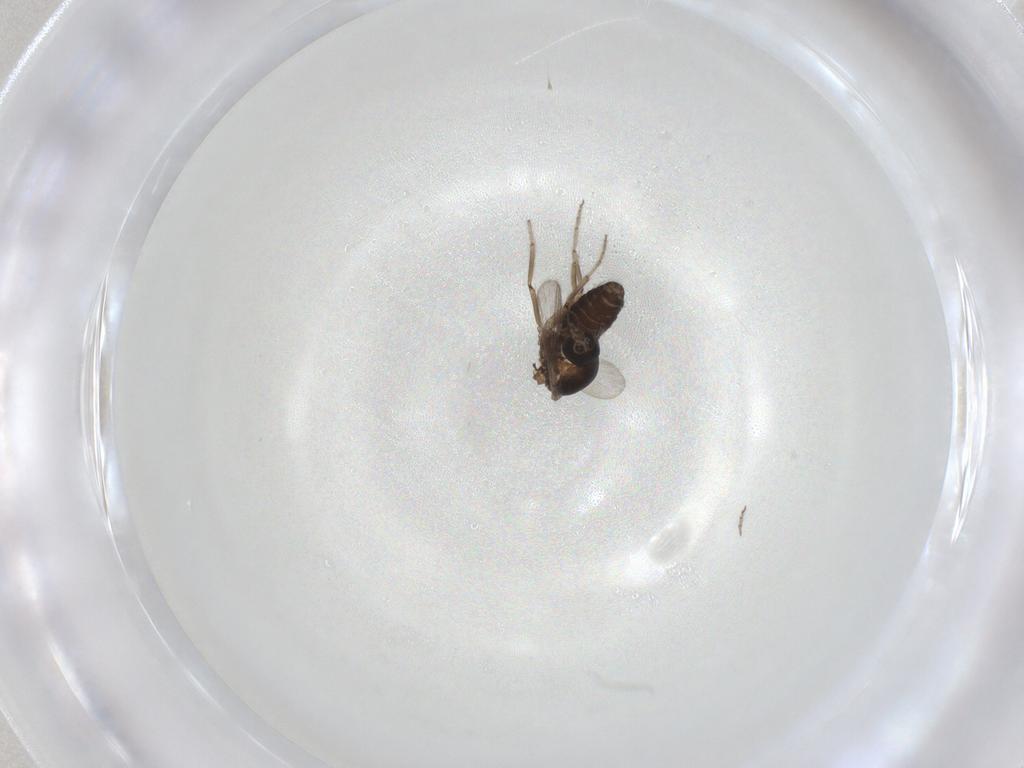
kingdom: Animalia
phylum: Arthropoda
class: Insecta
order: Diptera
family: Ceratopogonidae
